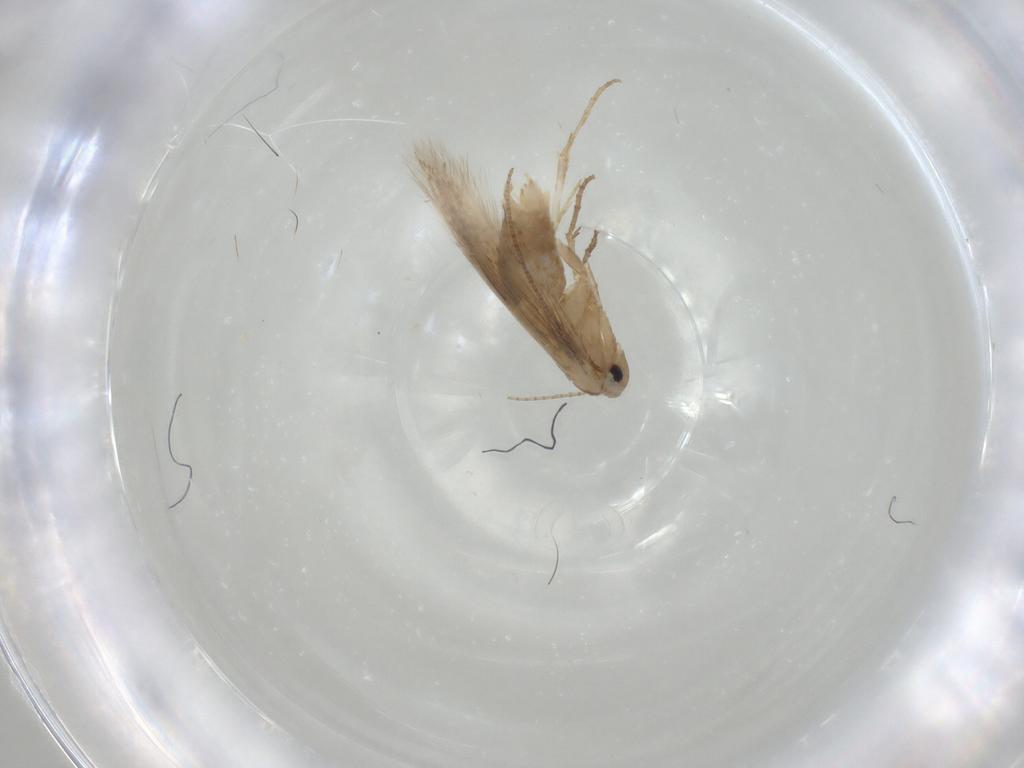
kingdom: Animalia
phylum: Arthropoda
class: Insecta
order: Lepidoptera
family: Bucculatricidae
